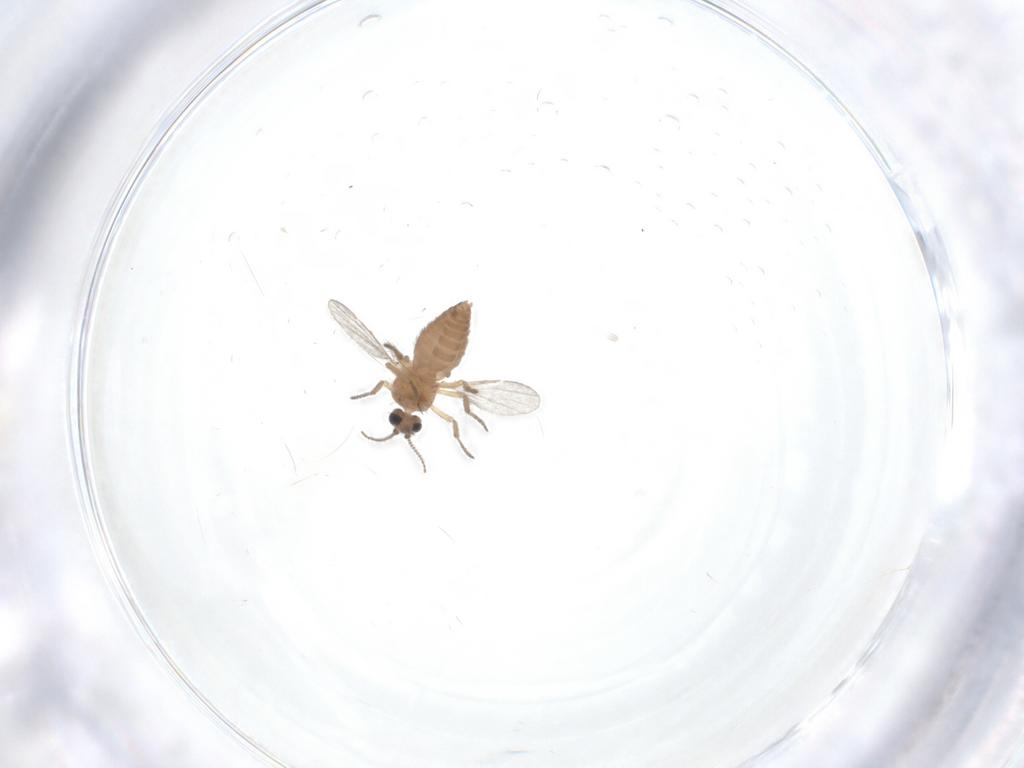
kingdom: Animalia
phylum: Arthropoda
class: Insecta
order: Diptera
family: Ceratopogonidae
